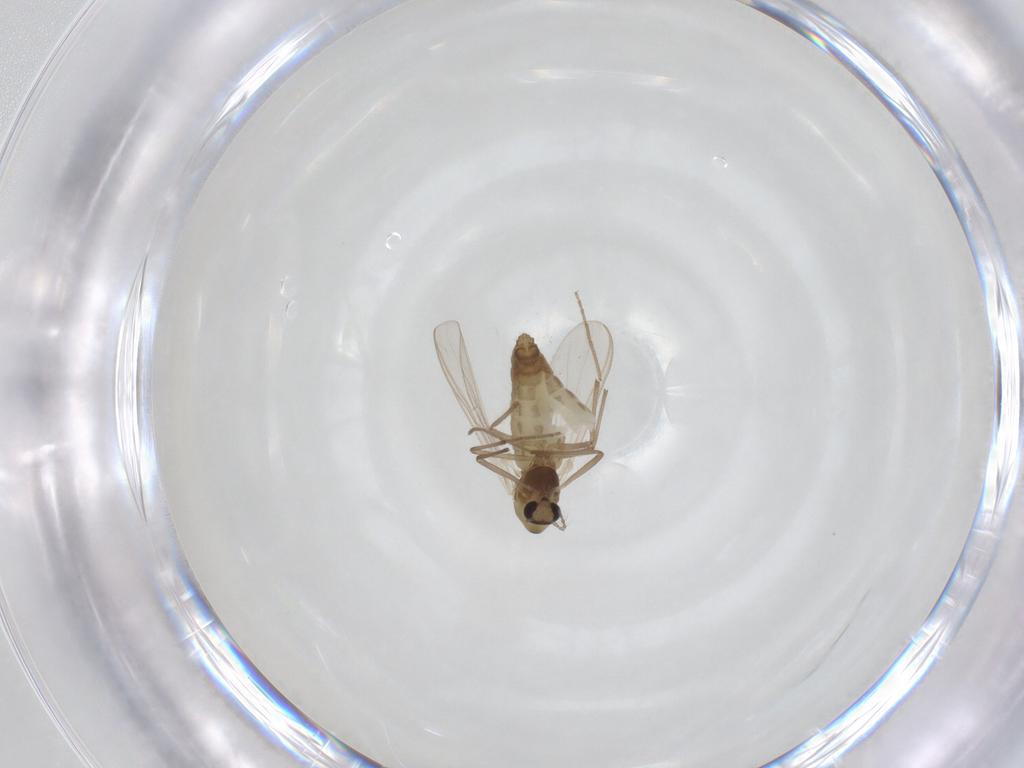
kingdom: Animalia
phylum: Arthropoda
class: Insecta
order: Diptera
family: Chironomidae
